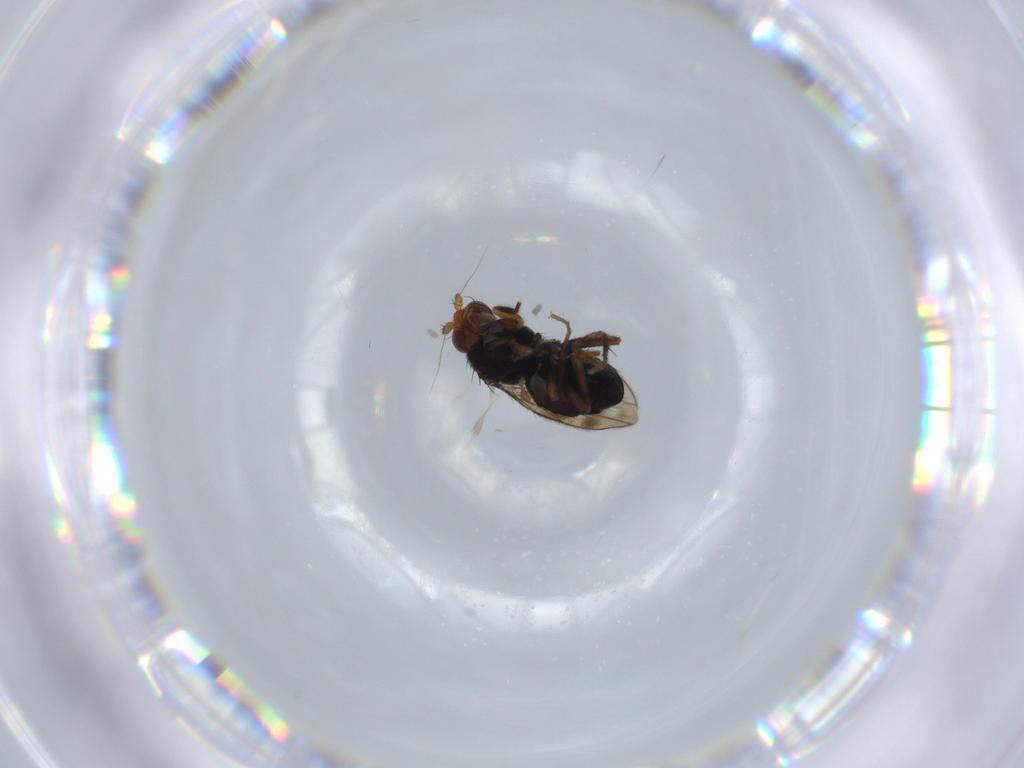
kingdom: Animalia
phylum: Arthropoda
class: Insecta
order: Diptera
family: Sphaeroceridae
